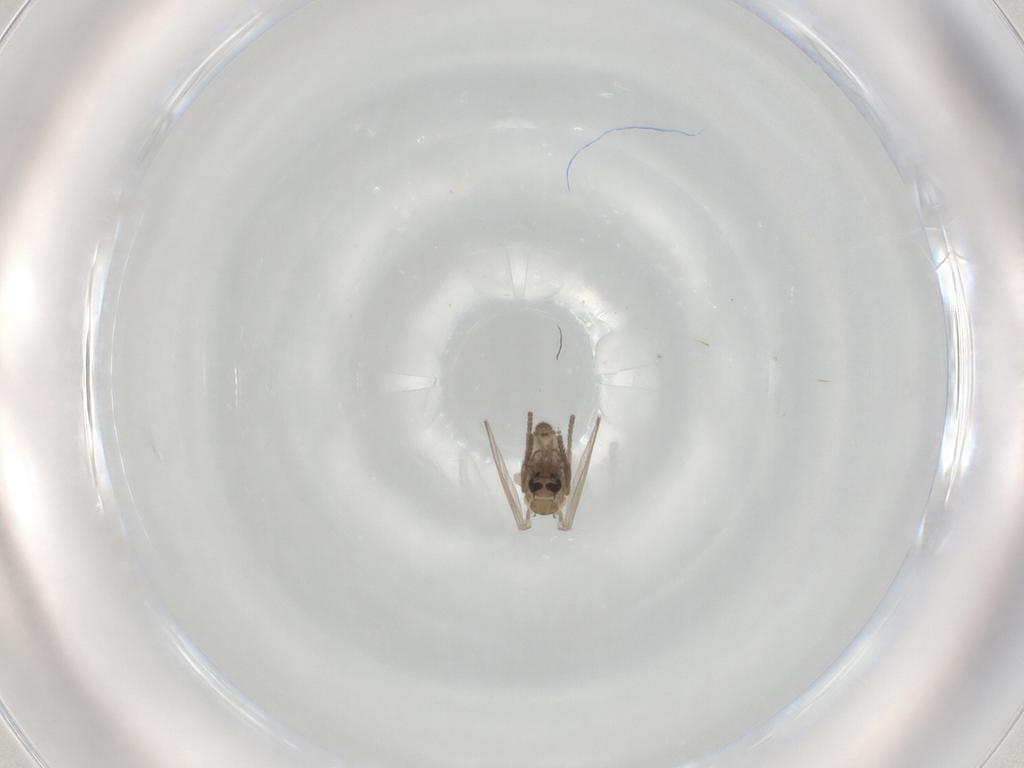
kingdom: Animalia
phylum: Arthropoda
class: Insecta
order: Diptera
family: Psychodidae
